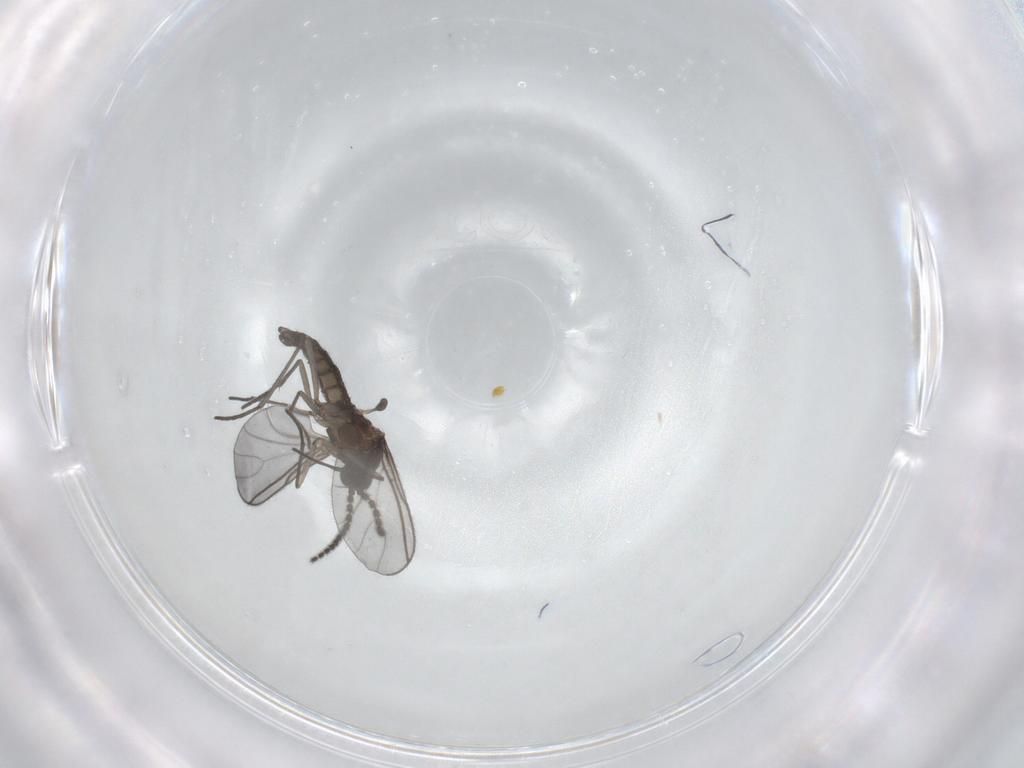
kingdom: Animalia
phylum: Arthropoda
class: Insecta
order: Diptera
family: Sciaridae
